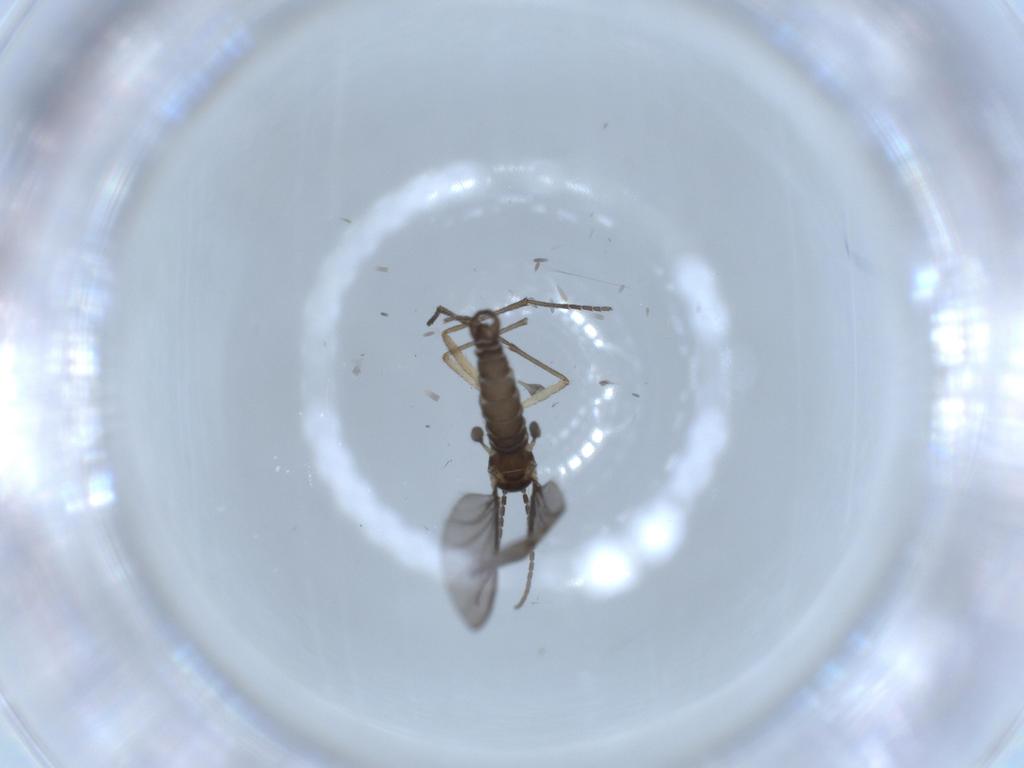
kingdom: Animalia
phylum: Arthropoda
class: Insecta
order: Diptera
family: Sciaridae
